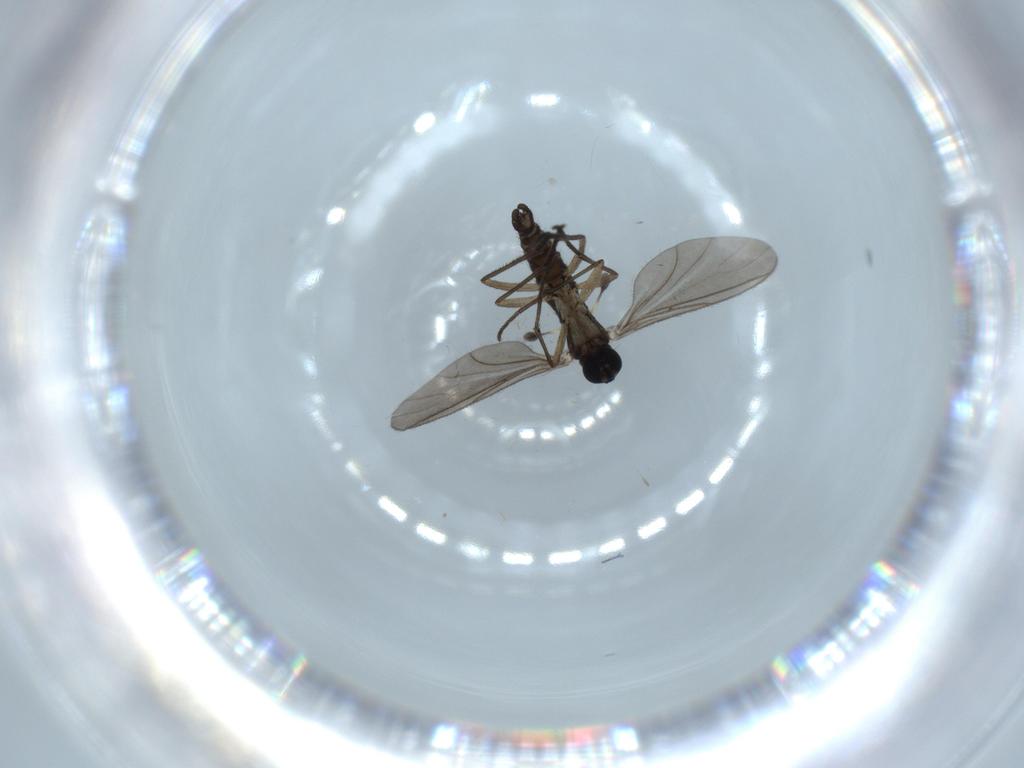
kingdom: Animalia
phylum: Arthropoda
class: Insecta
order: Diptera
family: Sciaridae
